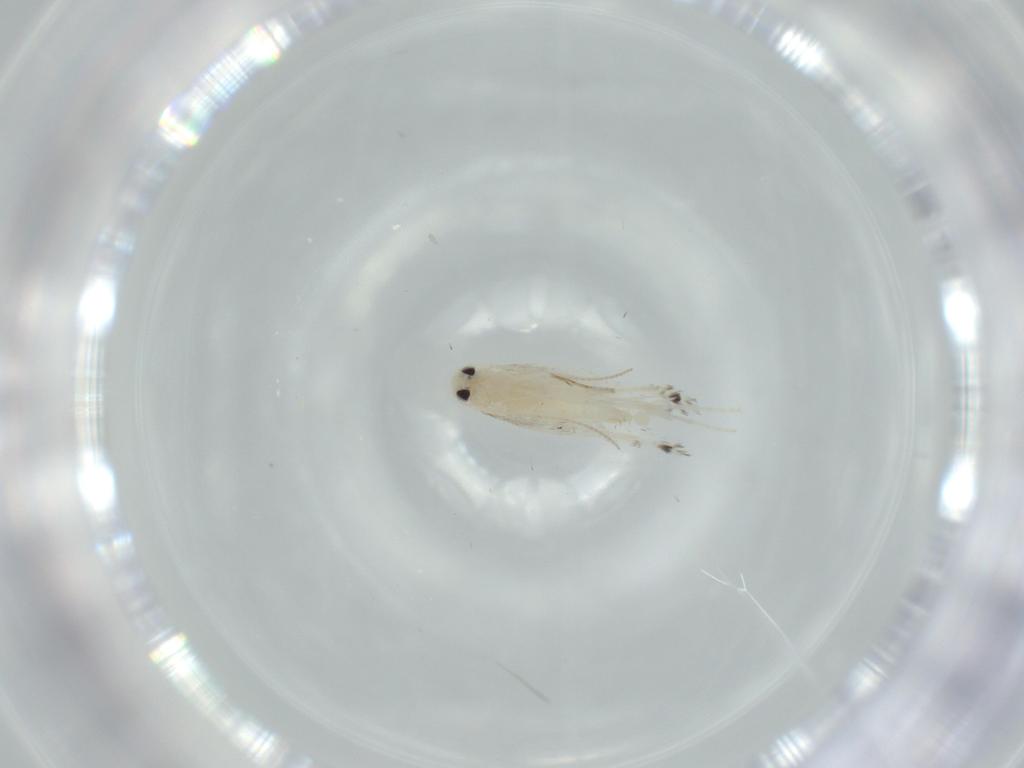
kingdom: Animalia
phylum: Arthropoda
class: Insecta
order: Lepidoptera
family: Gracillariidae
